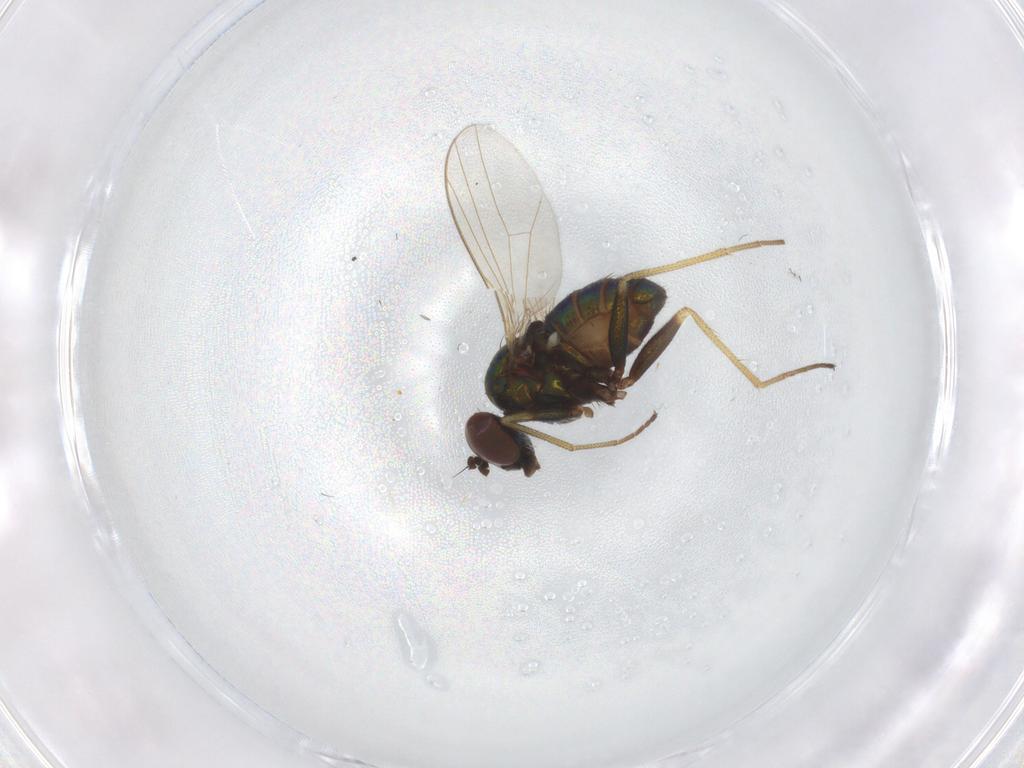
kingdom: Animalia
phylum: Arthropoda
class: Insecta
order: Diptera
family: Dolichopodidae
